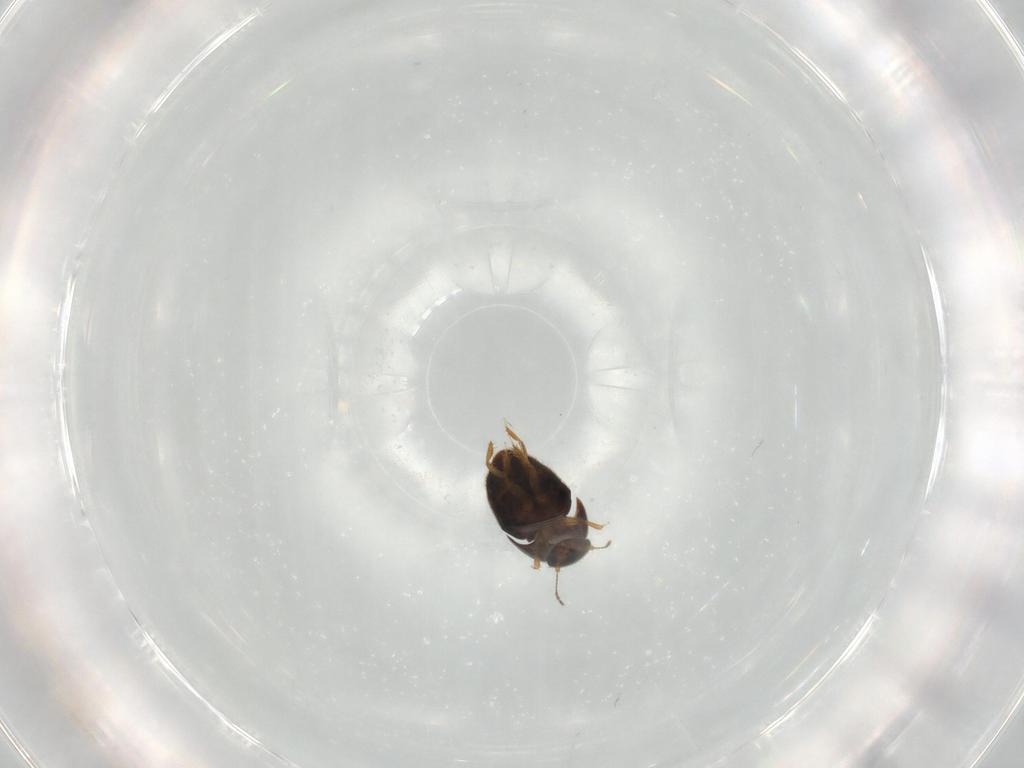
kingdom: Animalia
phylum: Arthropoda
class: Insecta
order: Coleoptera
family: Ptiliidae
